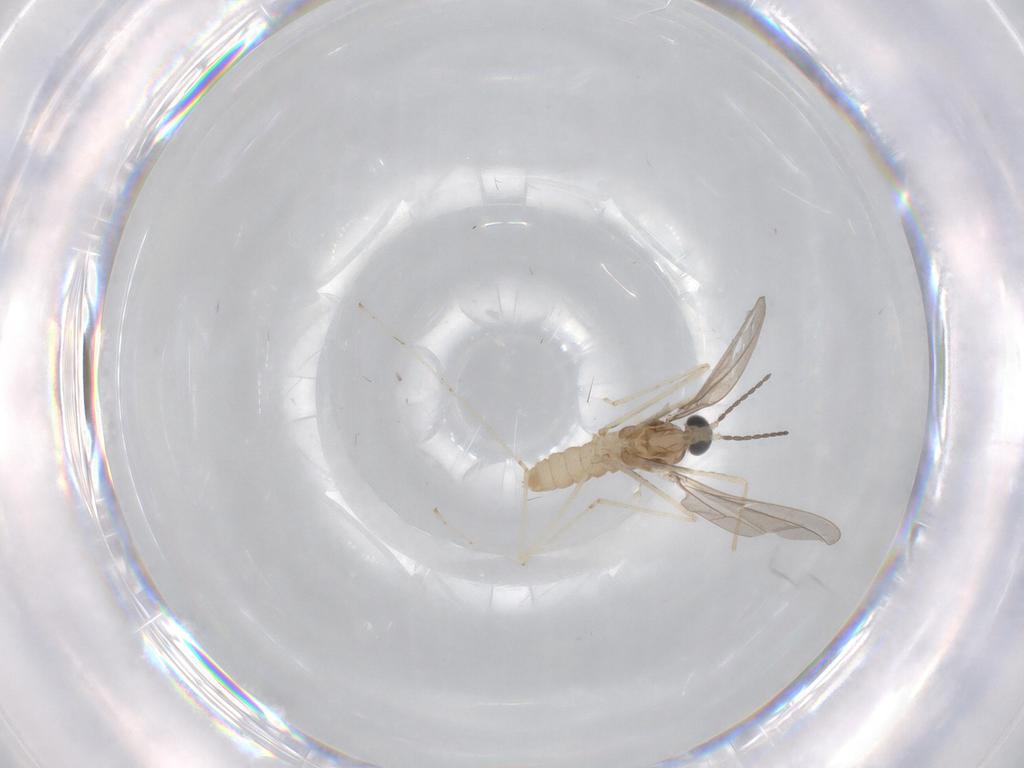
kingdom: Animalia
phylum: Arthropoda
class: Insecta
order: Diptera
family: Cecidomyiidae
